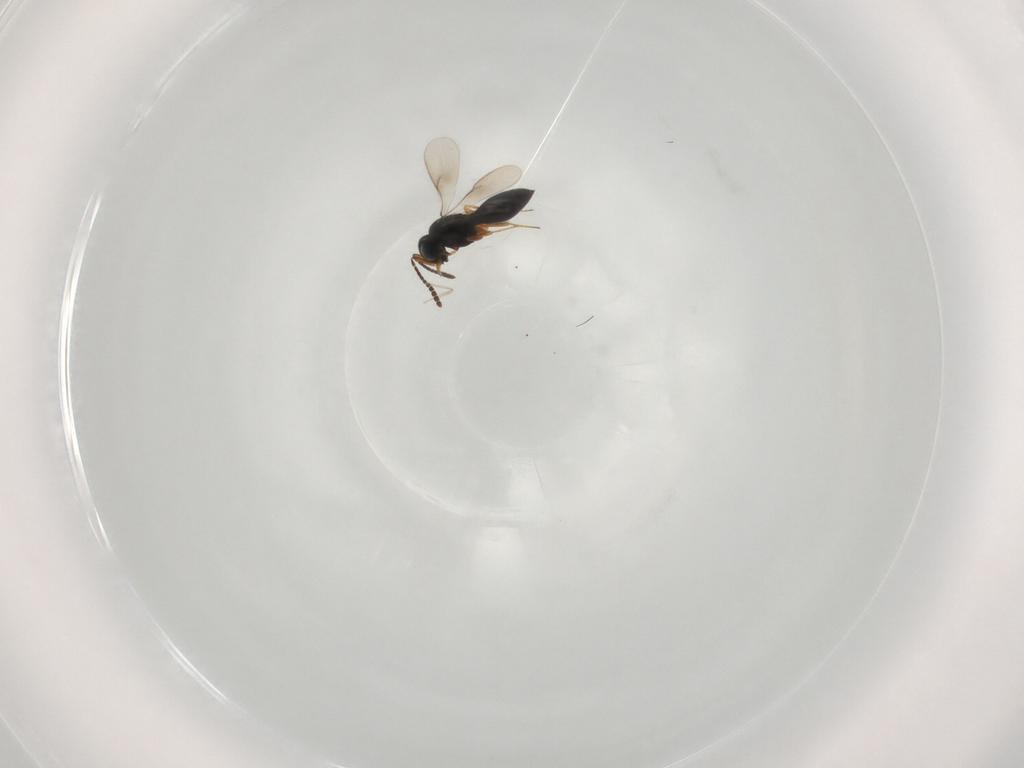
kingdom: Animalia
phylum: Arthropoda
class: Insecta
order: Hymenoptera
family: Scelionidae
